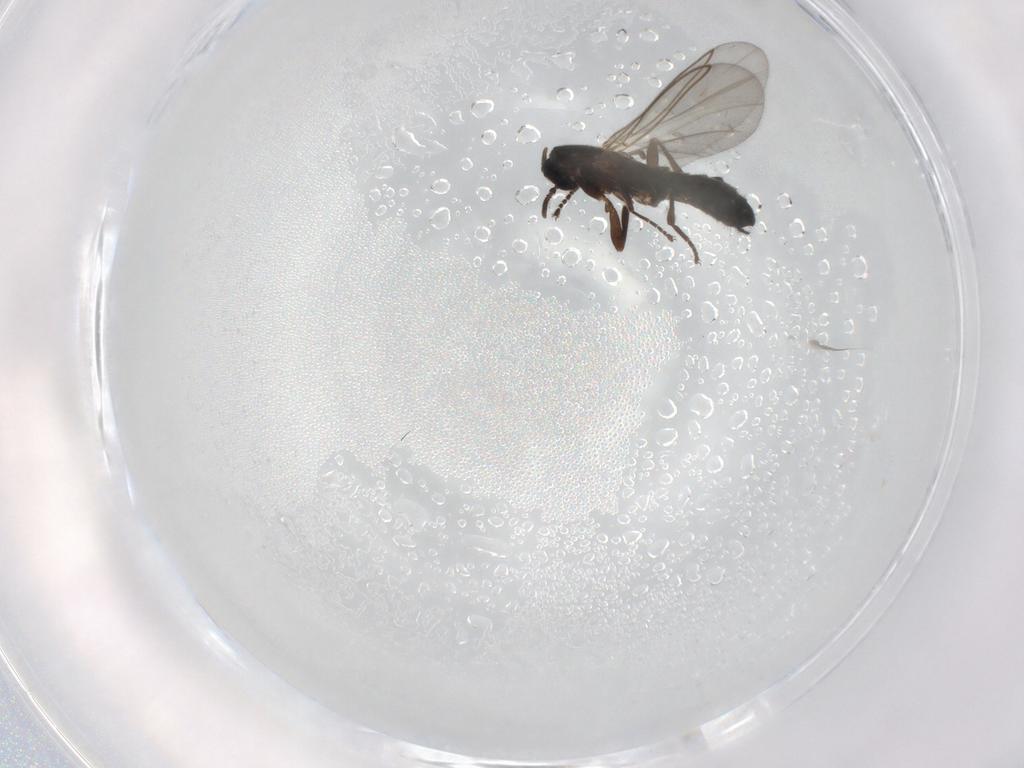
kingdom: Animalia
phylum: Arthropoda
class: Insecta
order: Diptera
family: Scatopsidae
